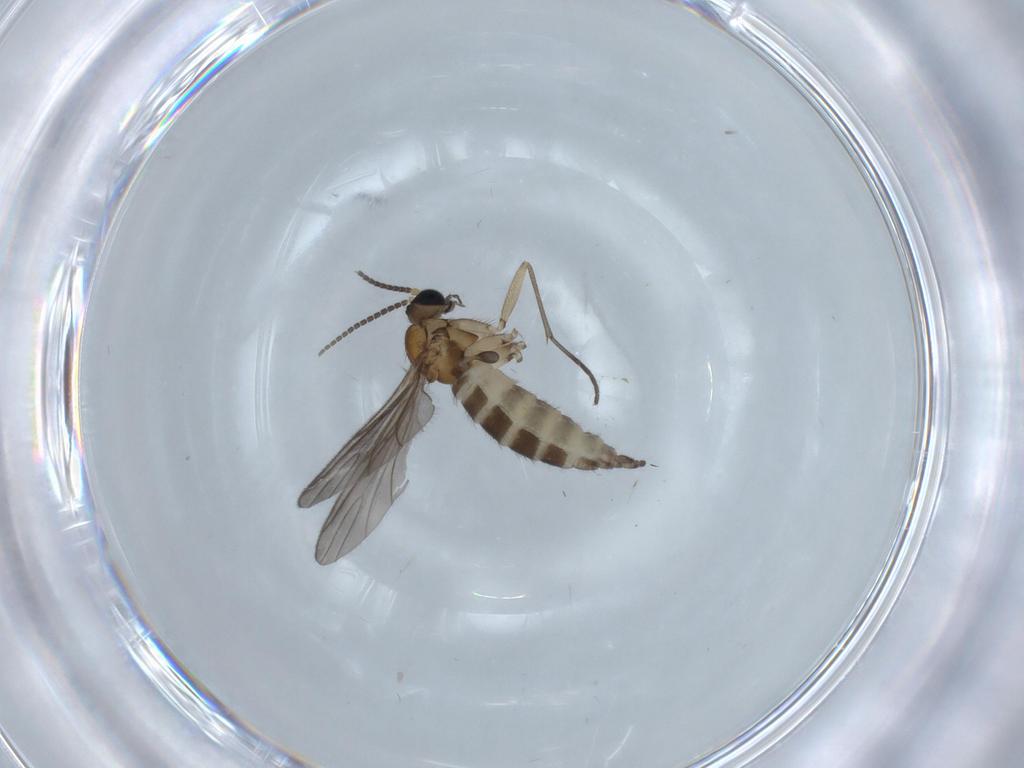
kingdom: Animalia
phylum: Arthropoda
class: Insecta
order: Diptera
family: Sciaridae
